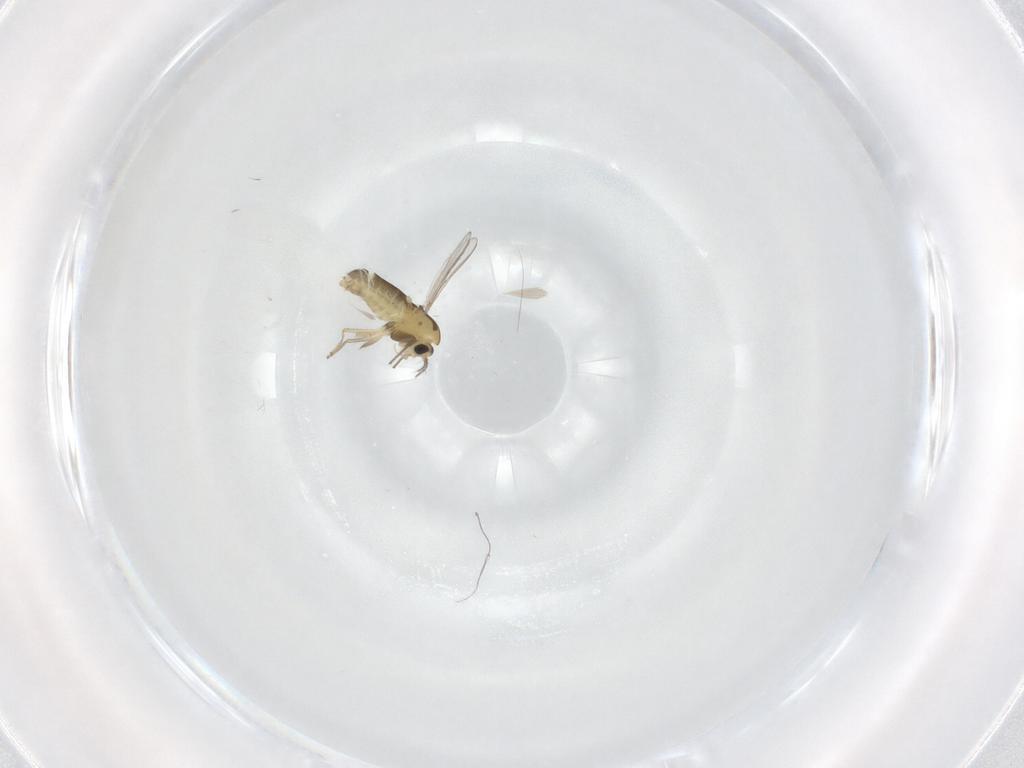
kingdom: Animalia
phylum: Arthropoda
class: Insecta
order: Diptera
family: Chironomidae
